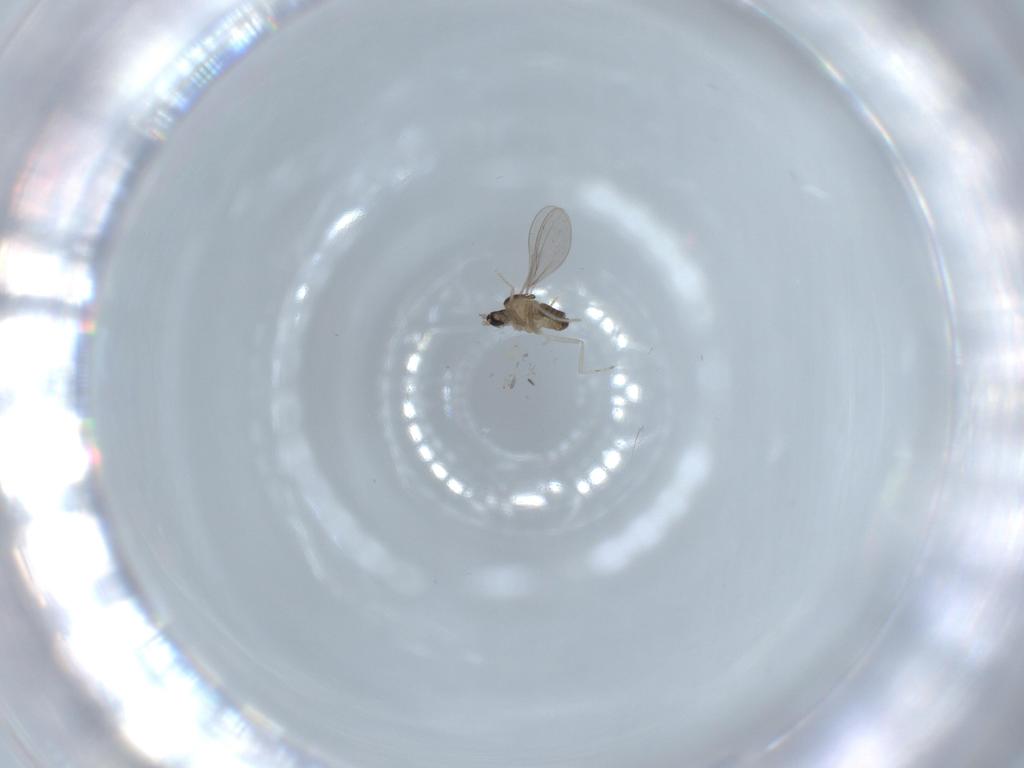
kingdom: Animalia
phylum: Arthropoda
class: Insecta
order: Diptera
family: Cecidomyiidae
